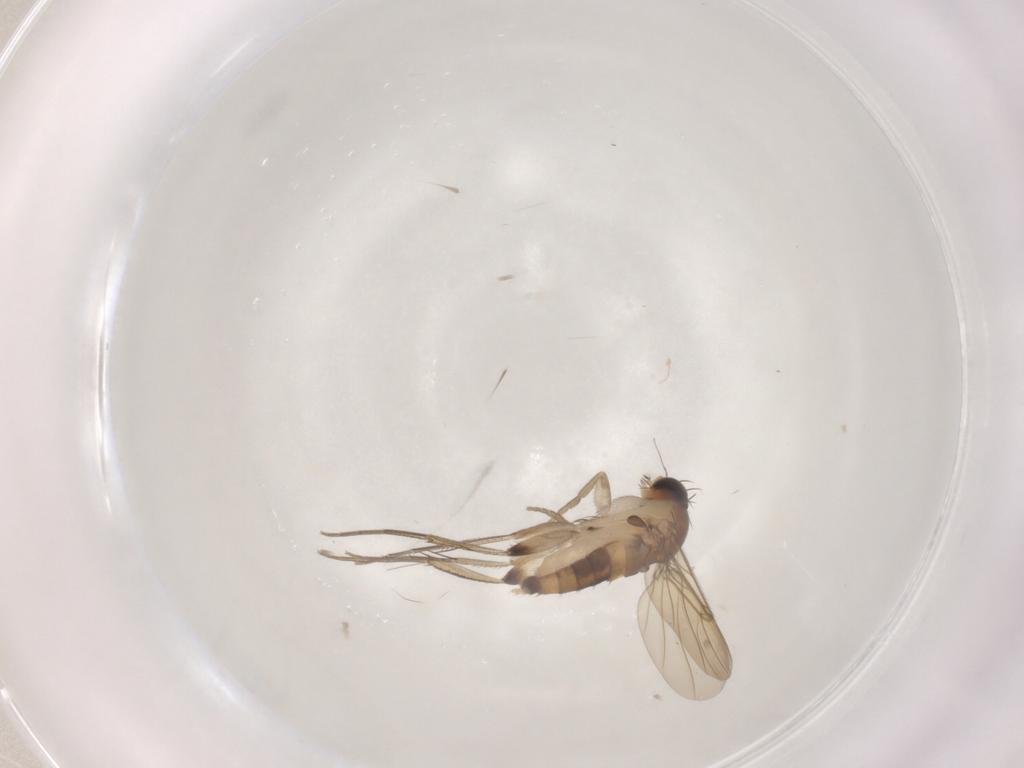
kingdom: Animalia
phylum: Arthropoda
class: Insecta
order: Diptera
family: Phoridae
